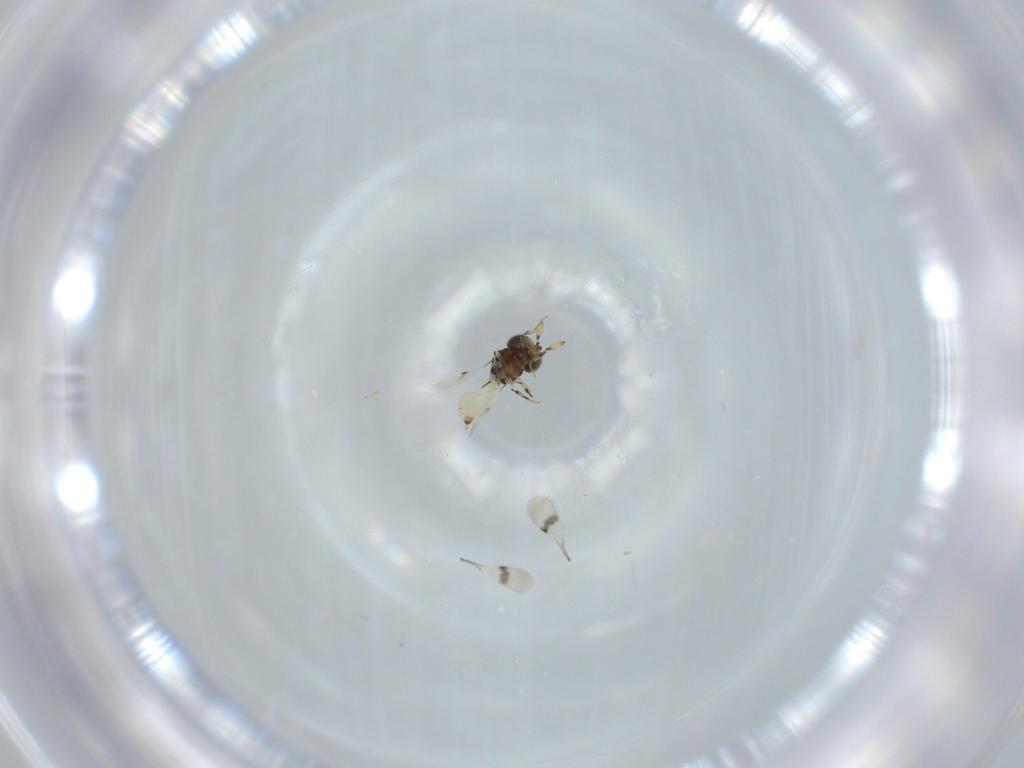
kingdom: Animalia
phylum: Arthropoda
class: Insecta
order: Hymenoptera
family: Scelionidae
